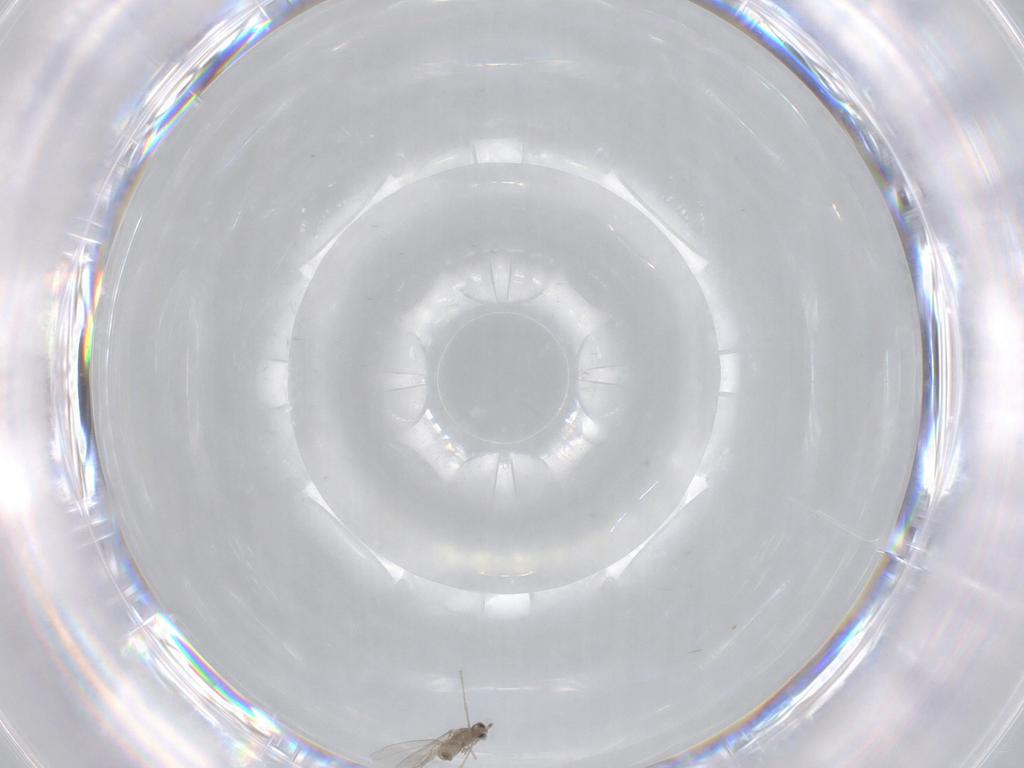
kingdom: Animalia
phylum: Arthropoda
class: Insecta
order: Diptera
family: Cecidomyiidae
